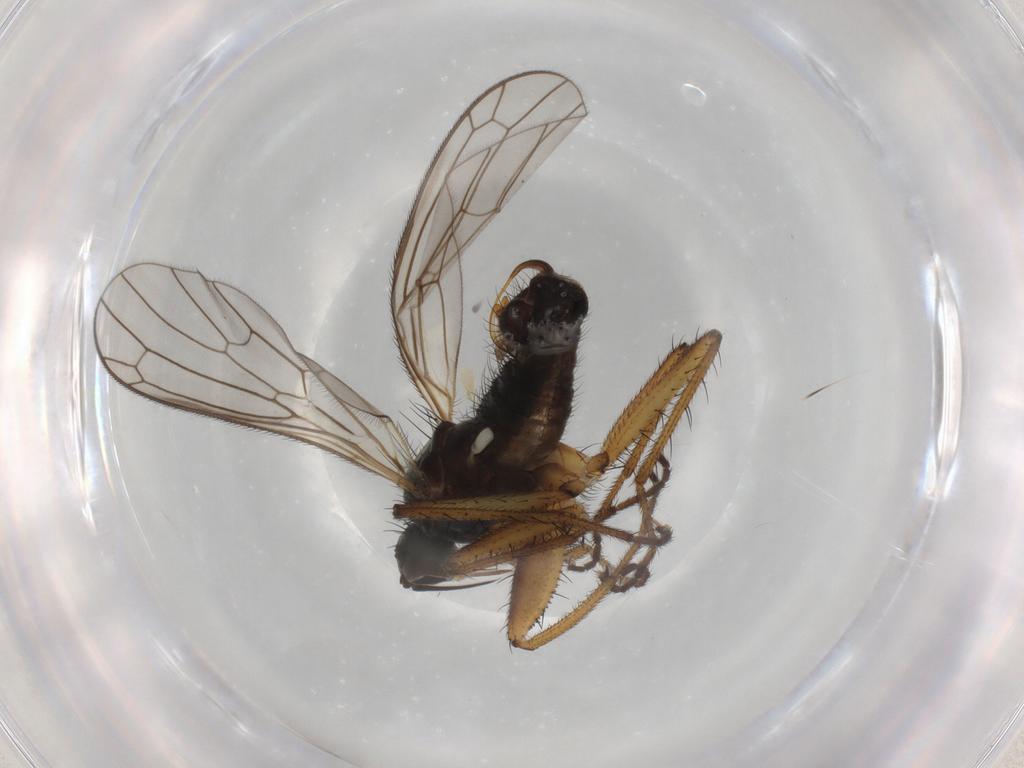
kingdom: Animalia
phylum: Arthropoda
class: Insecta
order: Diptera
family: Empididae
